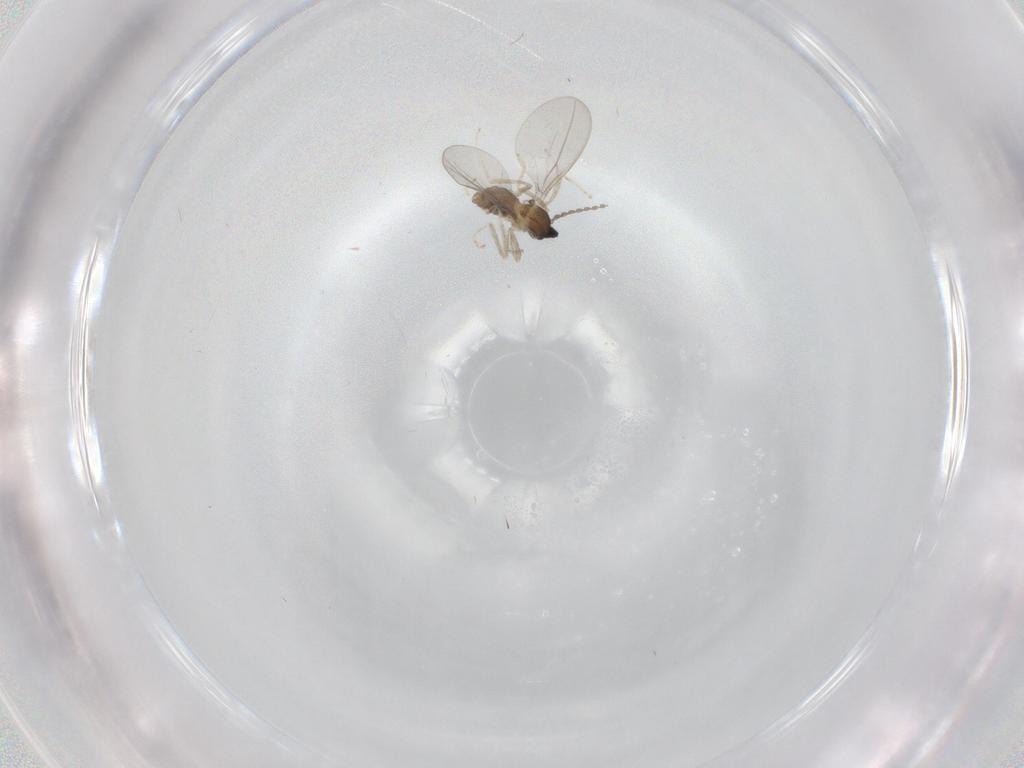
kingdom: Animalia
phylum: Arthropoda
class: Insecta
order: Diptera
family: Cecidomyiidae
